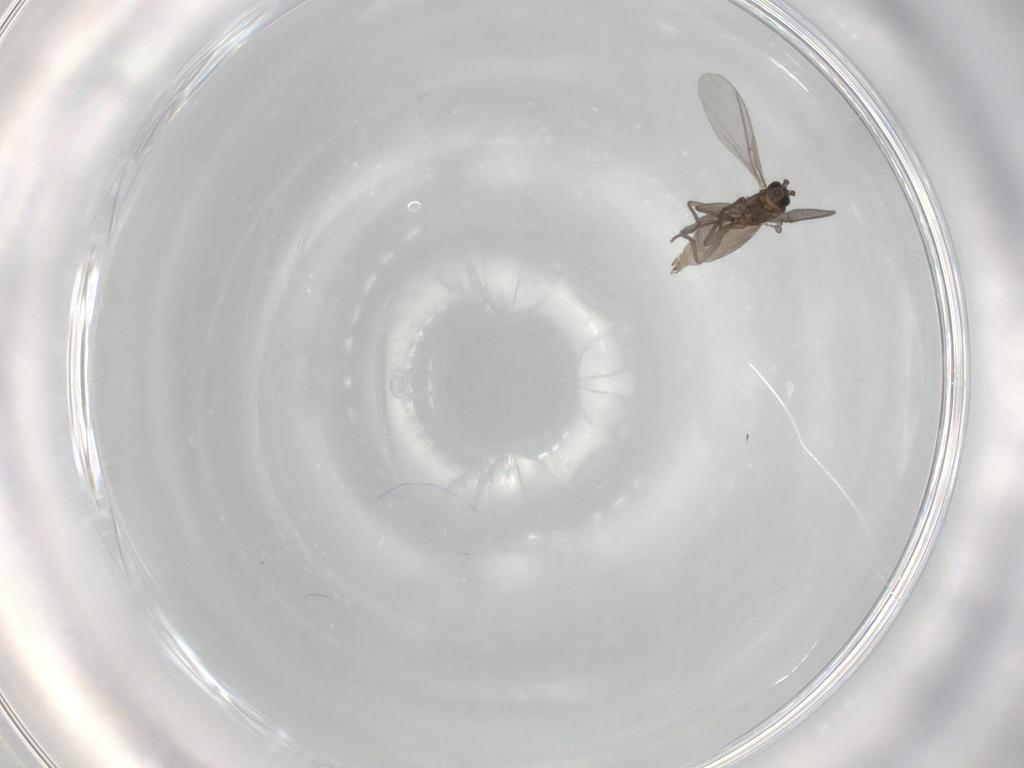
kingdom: Animalia
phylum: Arthropoda
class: Insecta
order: Diptera
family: Sciaridae
